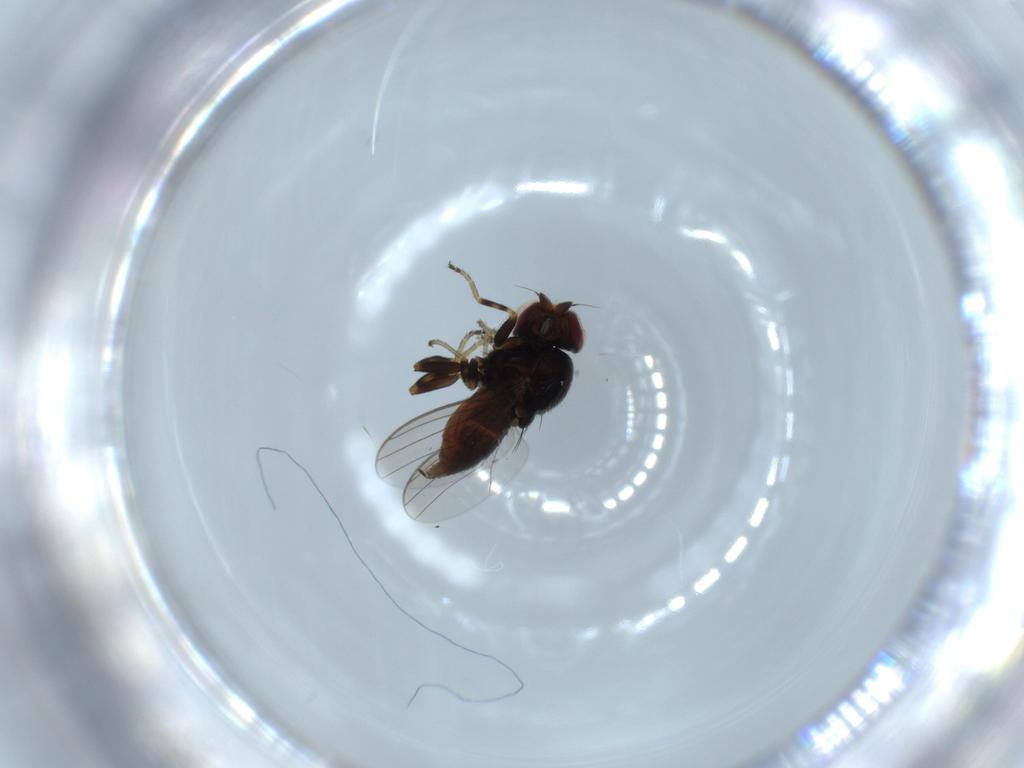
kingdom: Animalia
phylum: Arthropoda
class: Insecta
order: Diptera
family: Chloropidae
